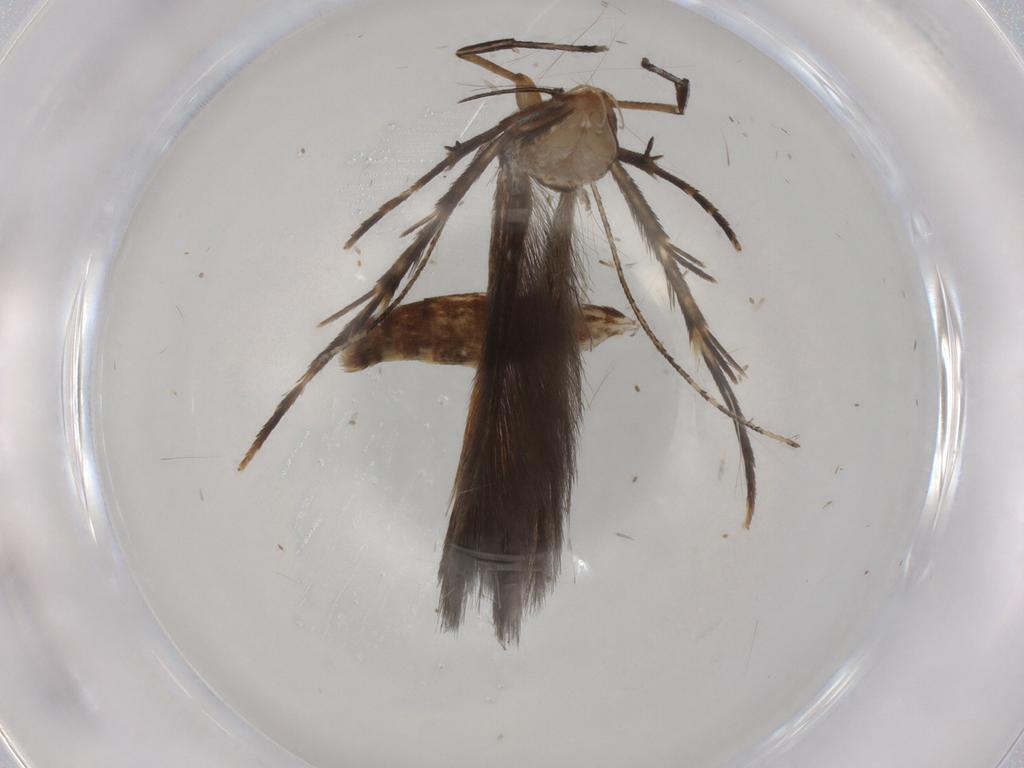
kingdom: Animalia
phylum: Arthropoda
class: Insecta
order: Lepidoptera
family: Cosmopterigidae
